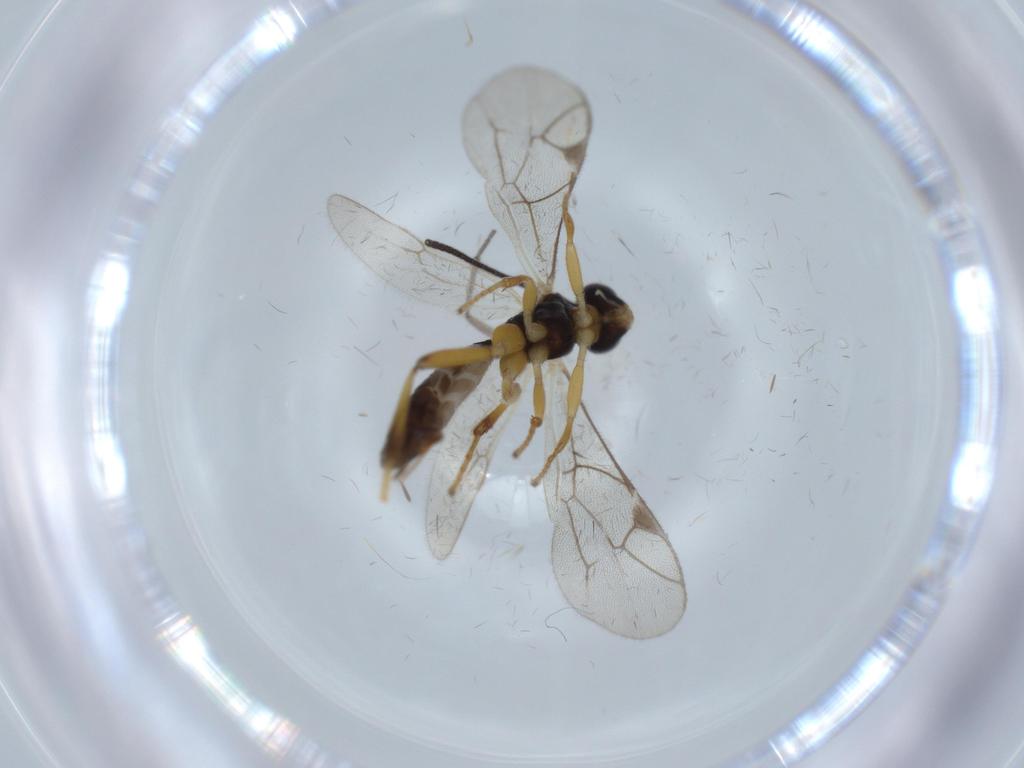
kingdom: Animalia
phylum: Arthropoda
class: Insecta
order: Hymenoptera
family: Ichneumonidae
